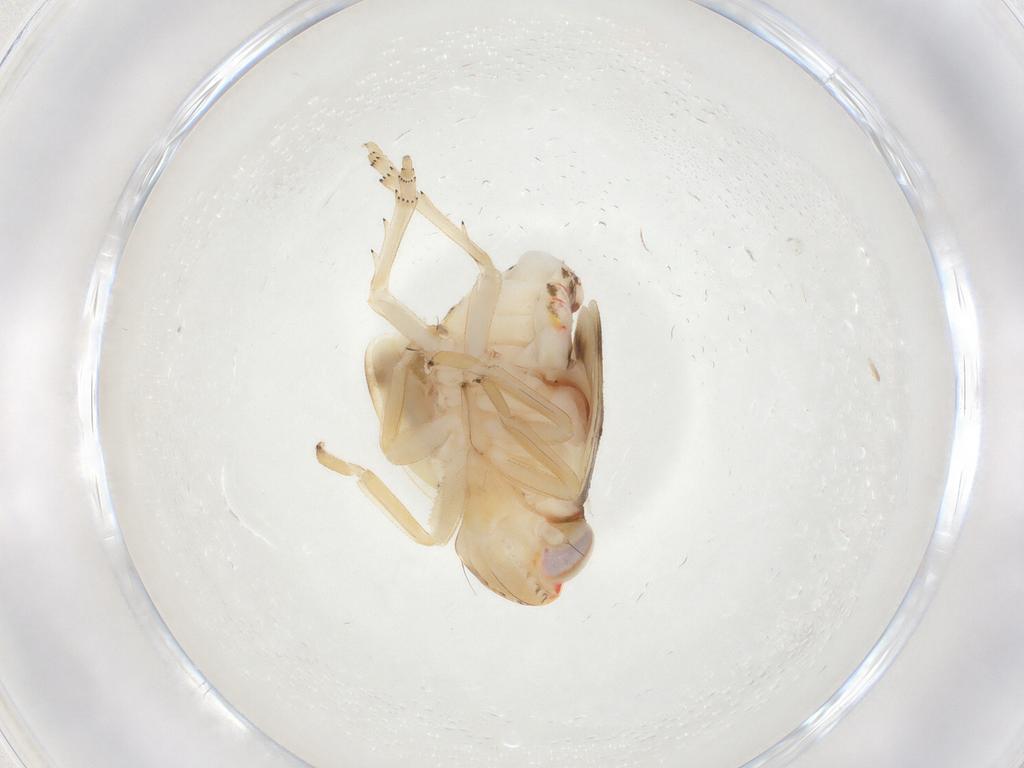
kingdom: Animalia
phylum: Arthropoda
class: Insecta
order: Hemiptera
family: Nogodinidae
